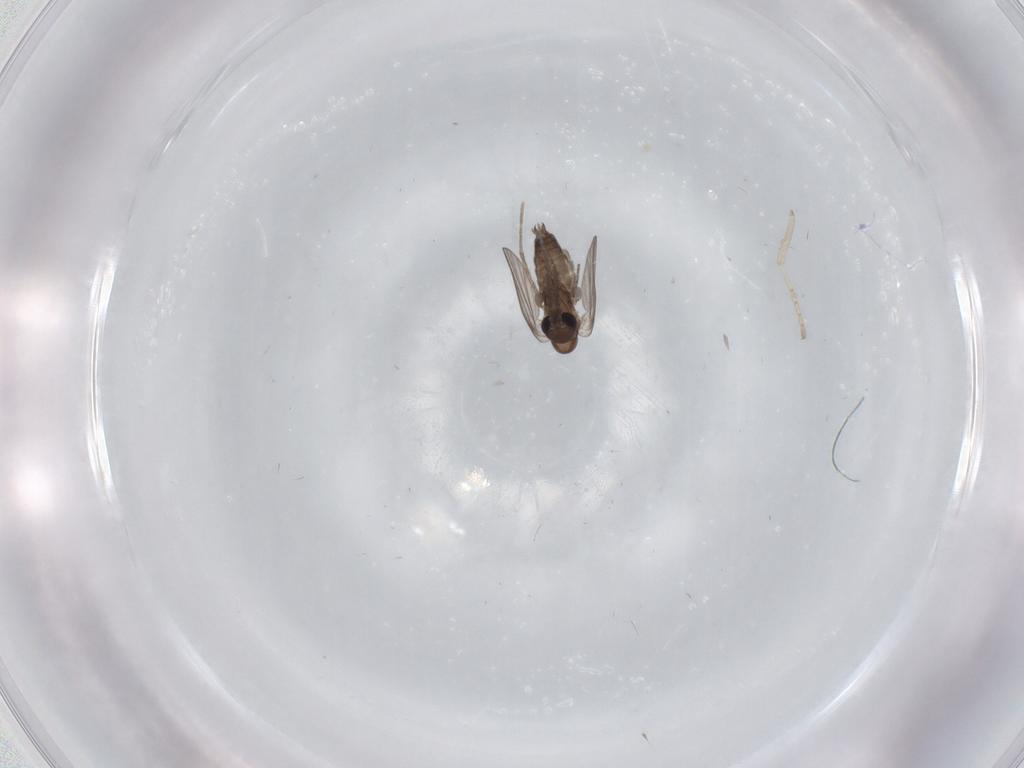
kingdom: Animalia
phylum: Arthropoda
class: Insecta
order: Diptera
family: Cecidomyiidae
